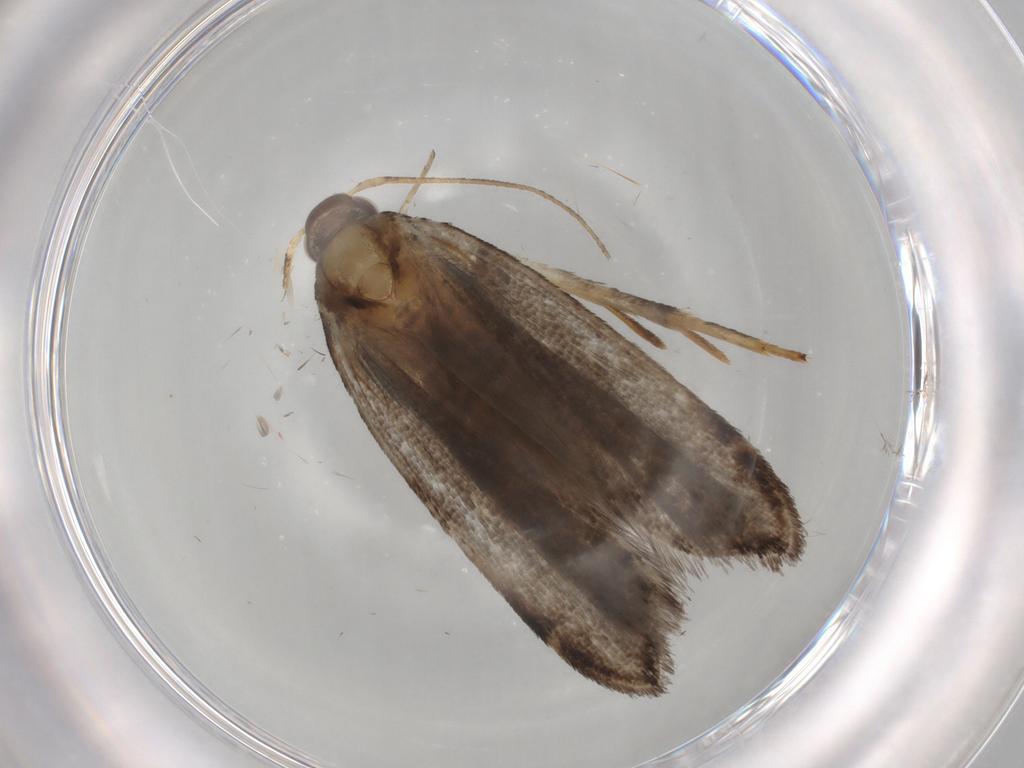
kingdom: Animalia
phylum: Arthropoda
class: Insecta
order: Lepidoptera
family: Gelechiidae
